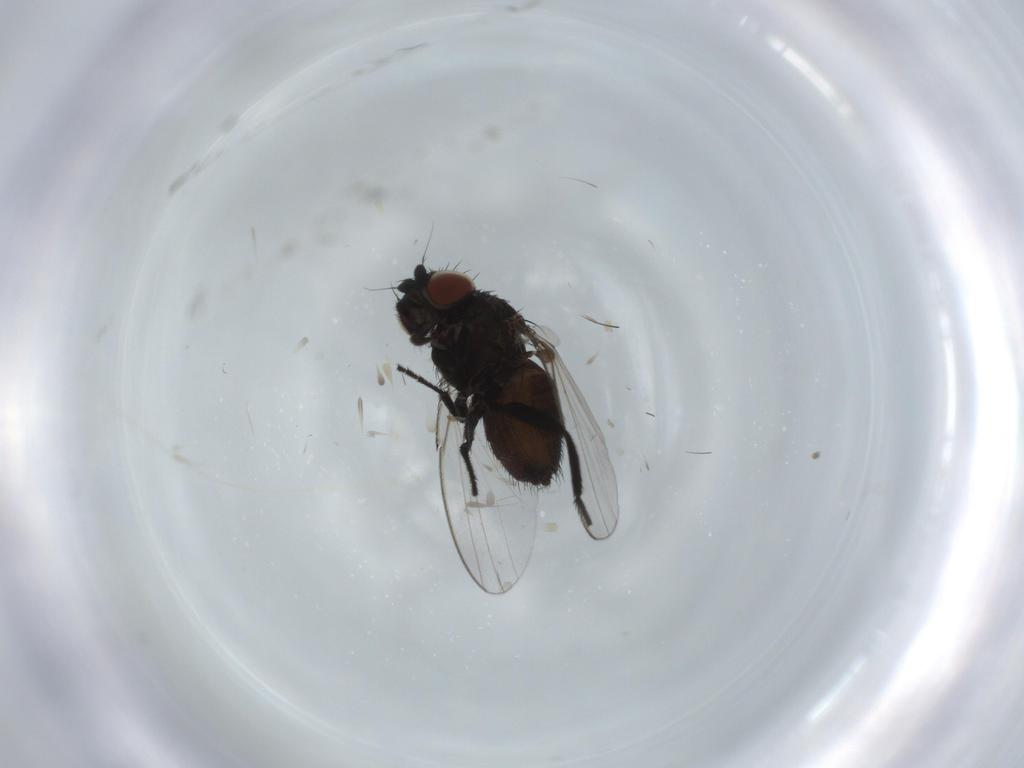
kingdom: Animalia
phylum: Arthropoda
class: Insecta
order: Diptera
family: Milichiidae
